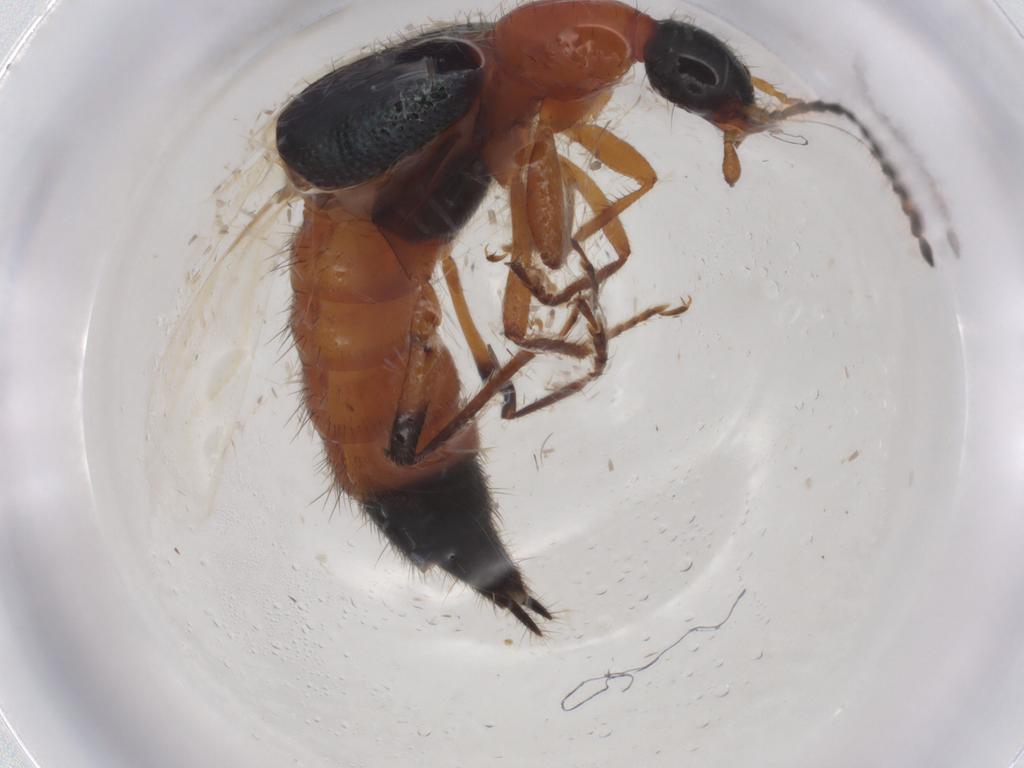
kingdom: Animalia
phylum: Arthropoda
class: Insecta
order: Coleoptera
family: Staphylinidae
